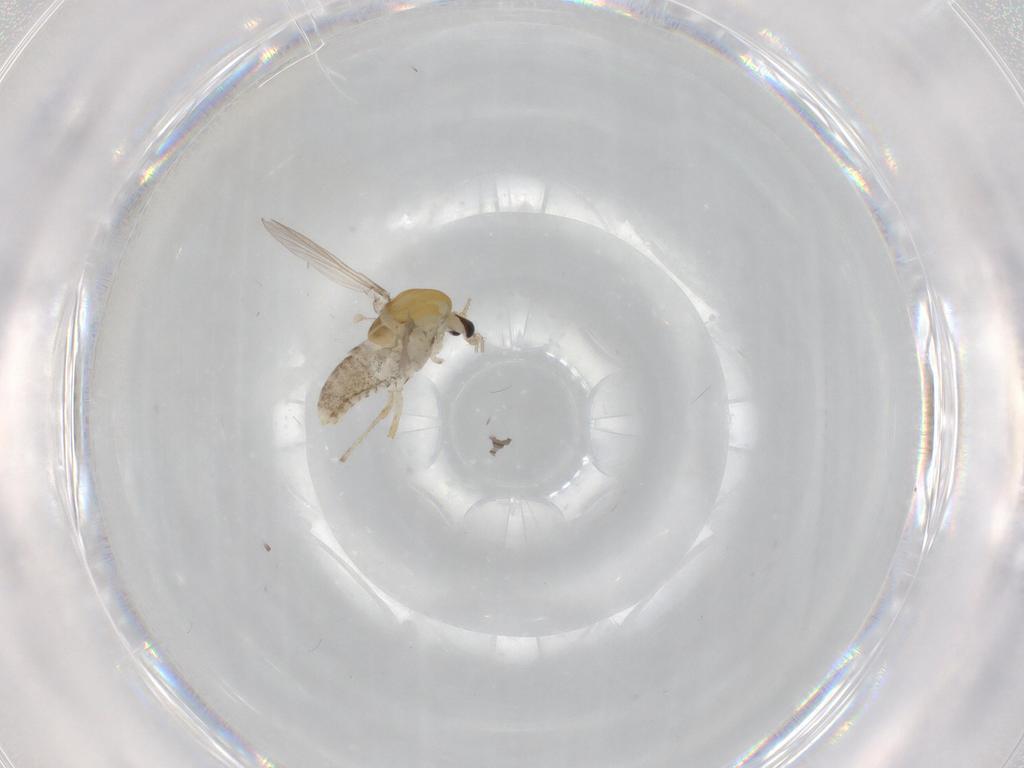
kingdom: Animalia
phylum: Arthropoda
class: Insecta
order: Diptera
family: Chironomidae
